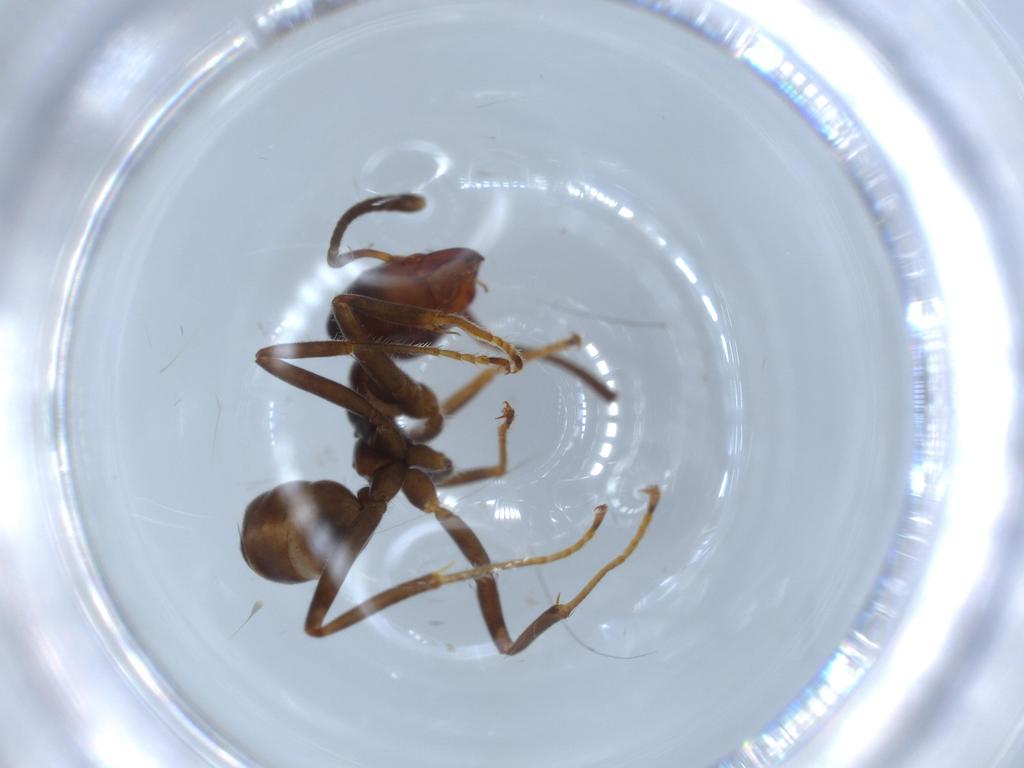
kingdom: Animalia
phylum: Arthropoda
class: Insecta
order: Hymenoptera
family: Formicidae
